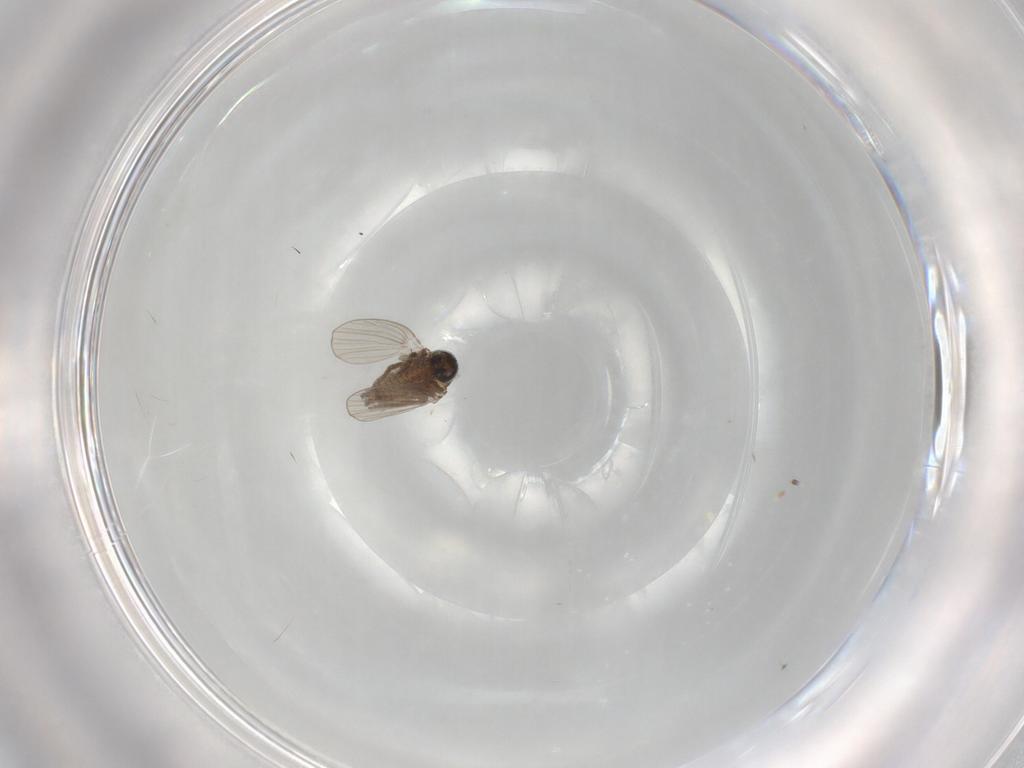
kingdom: Animalia
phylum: Arthropoda
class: Insecta
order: Diptera
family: Psychodidae
